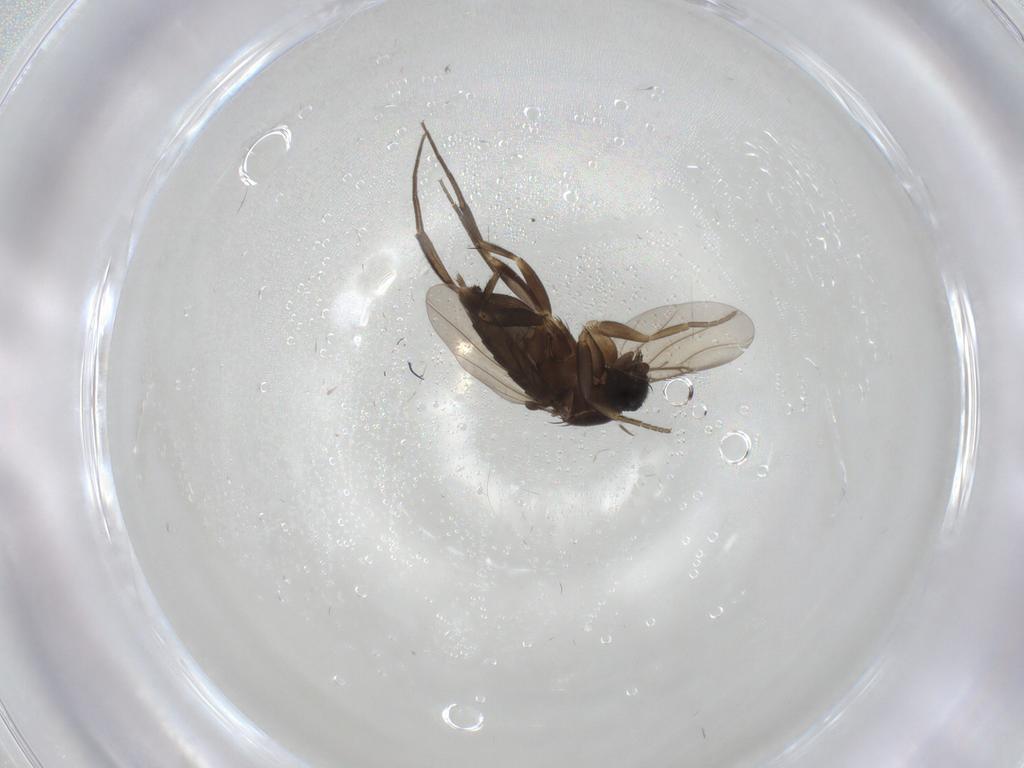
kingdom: Animalia
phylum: Arthropoda
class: Insecta
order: Diptera
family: Phoridae
